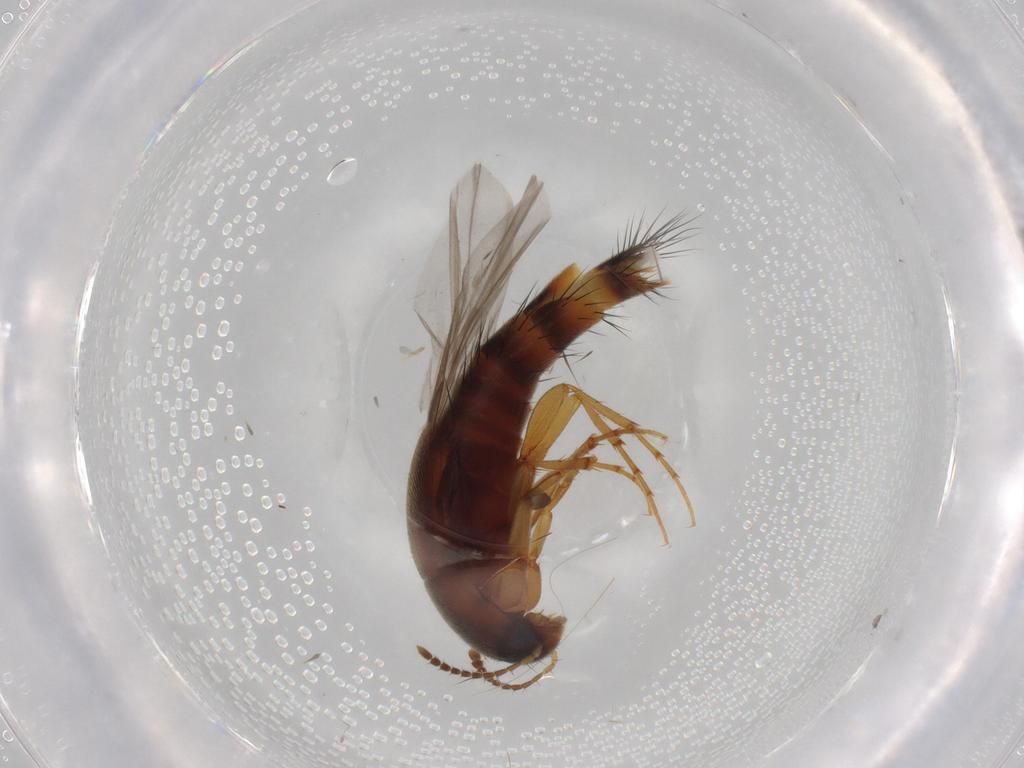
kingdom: Animalia
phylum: Arthropoda
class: Insecta
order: Coleoptera
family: Staphylinidae
